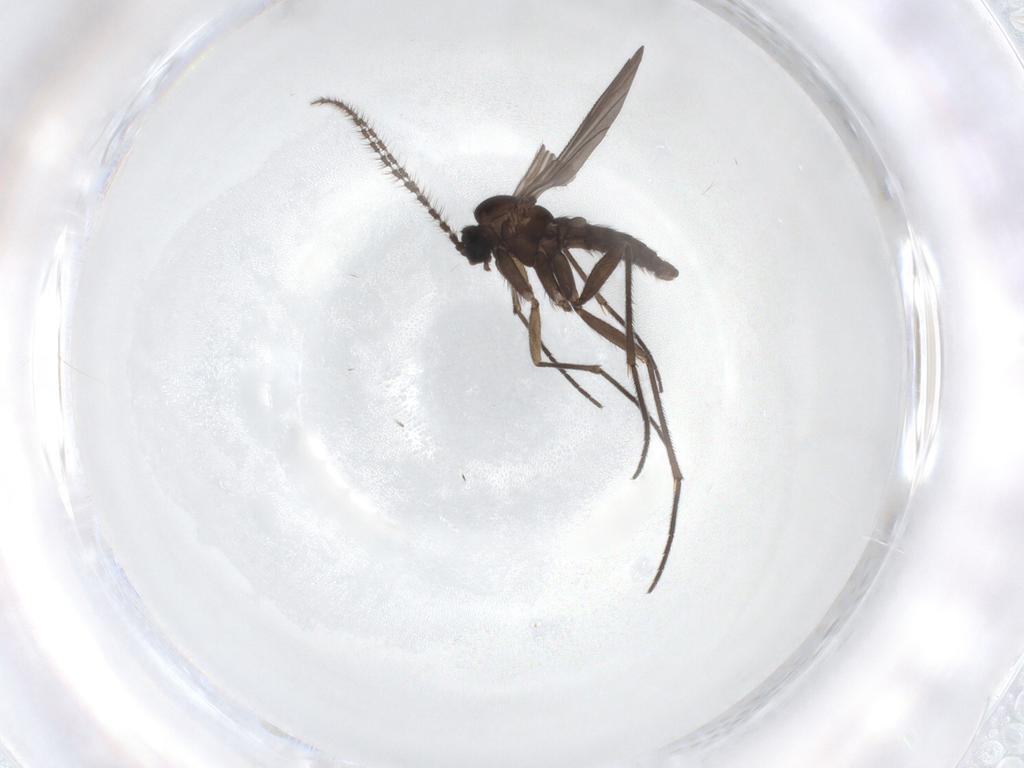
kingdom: Animalia
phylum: Arthropoda
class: Insecta
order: Diptera
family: Sciaridae
